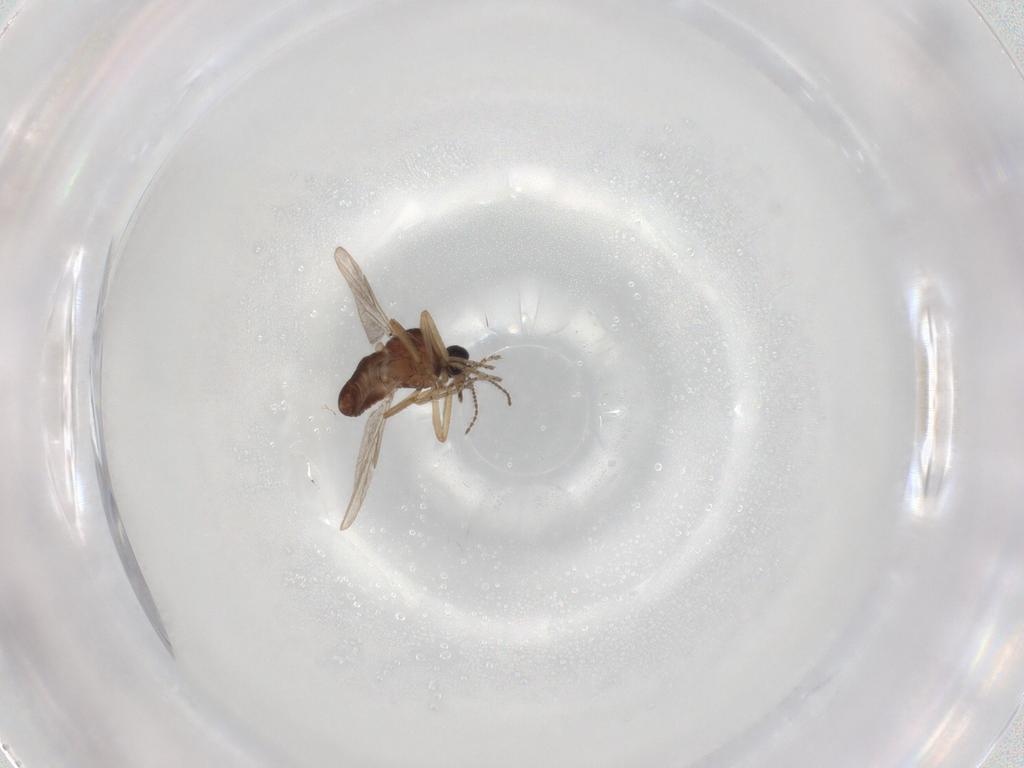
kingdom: Animalia
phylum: Arthropoda
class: Insecta
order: Diptera
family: Ceratopogonidae
